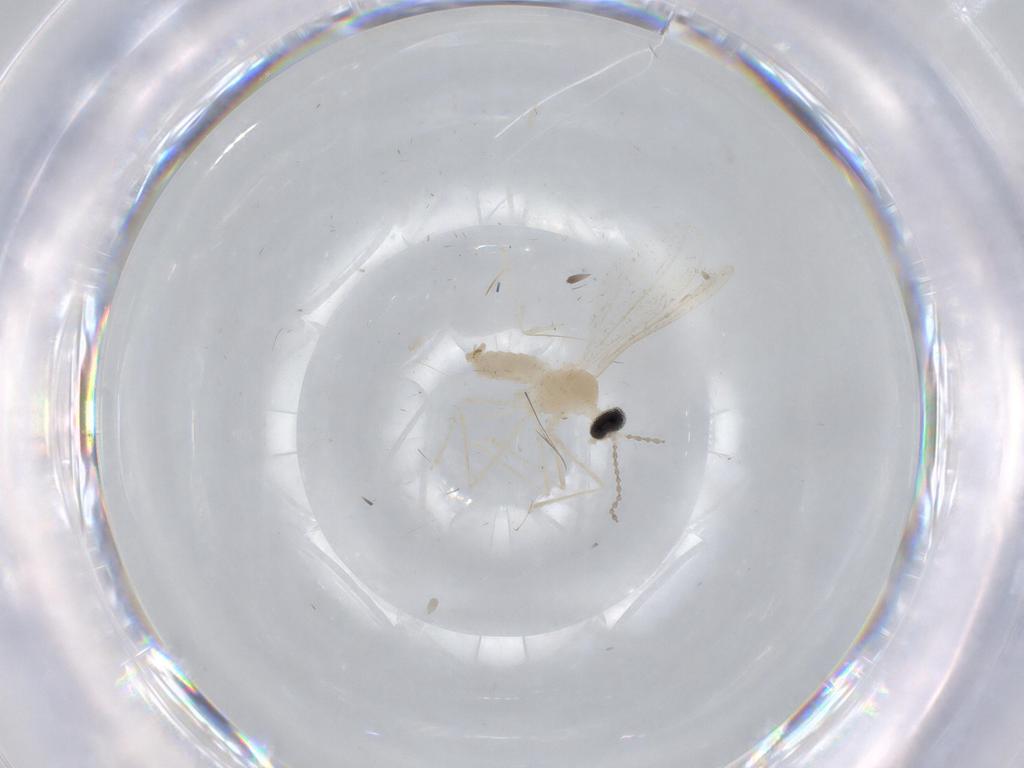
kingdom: Animalia
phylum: Arthropoda
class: Insecta
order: Diptera
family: Cecidomyiidae
